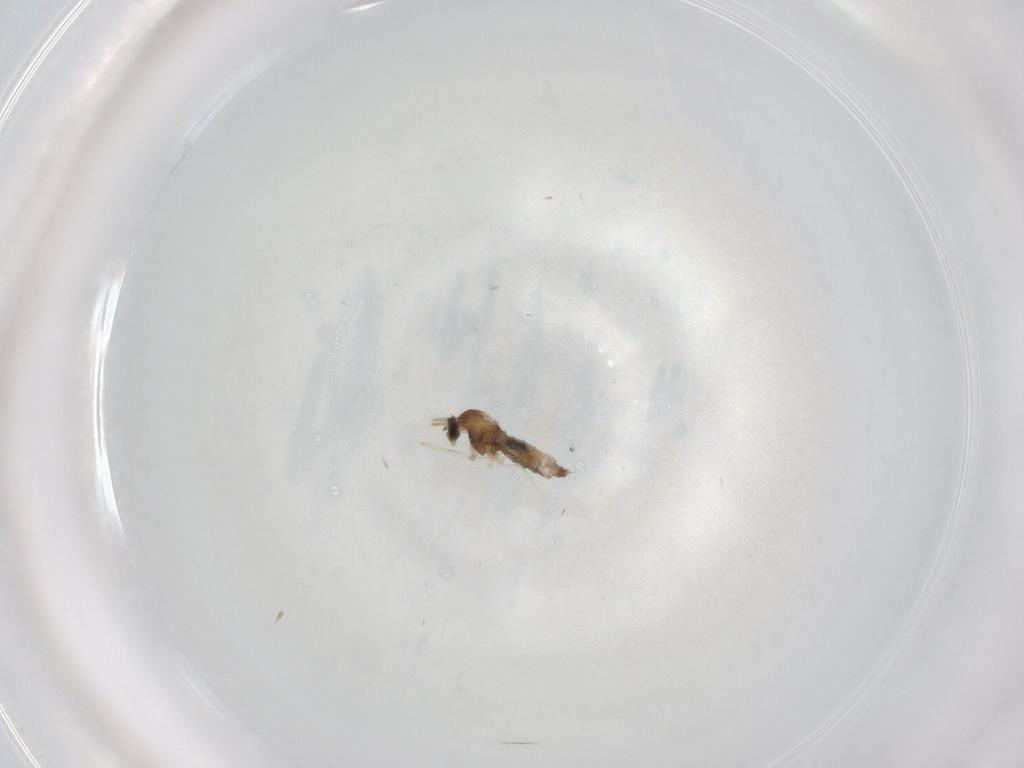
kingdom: Animalia
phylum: Arthropoda
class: Insecta
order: Diptera
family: Cecidomyiidae
